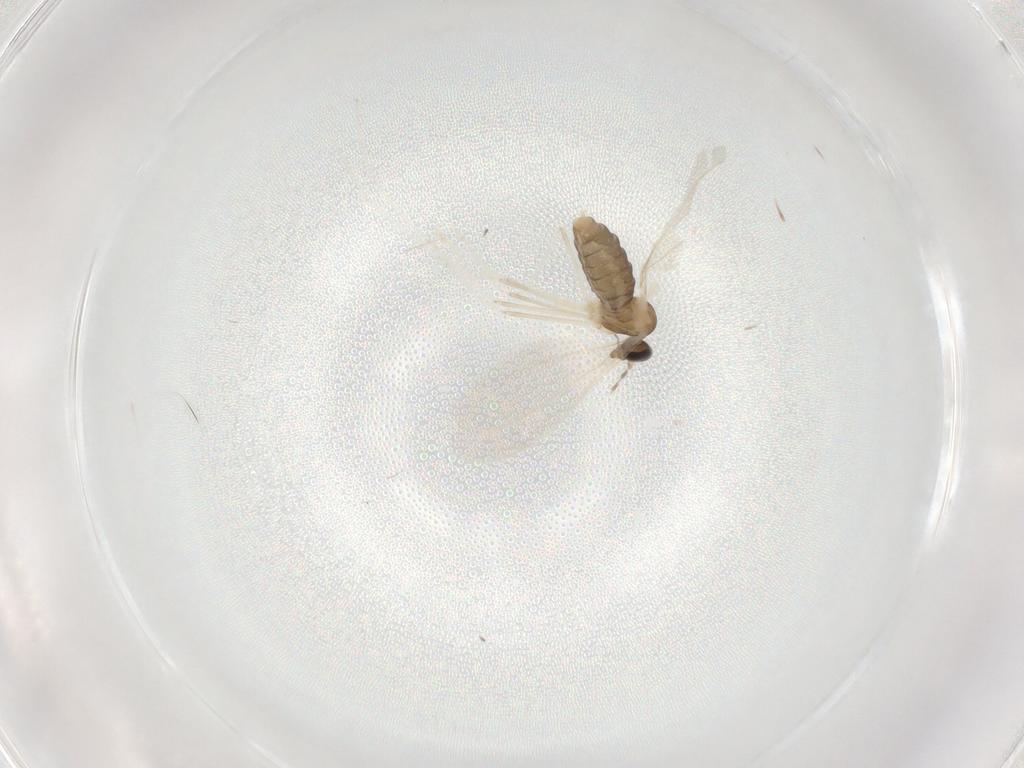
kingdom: Animalia
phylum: Arthropoda
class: Insecta
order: Diptera
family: Cecidomyiidae
